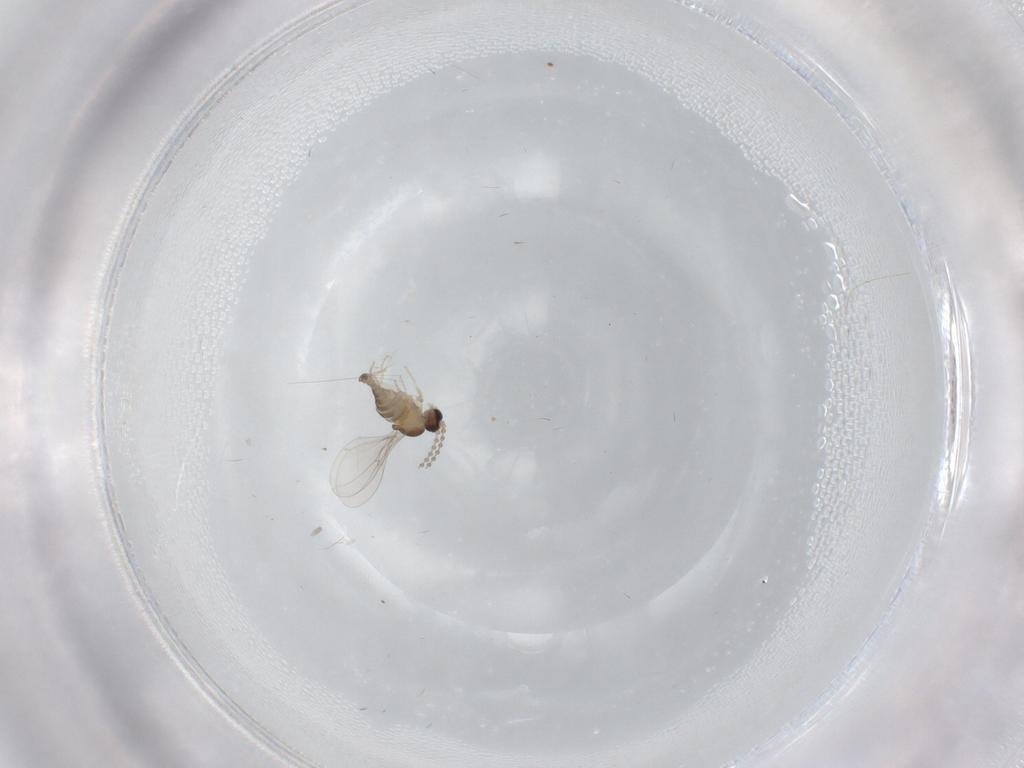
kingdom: Animalia
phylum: Arthropoda
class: Insecta
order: Diptera
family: Cecidomyiidae
